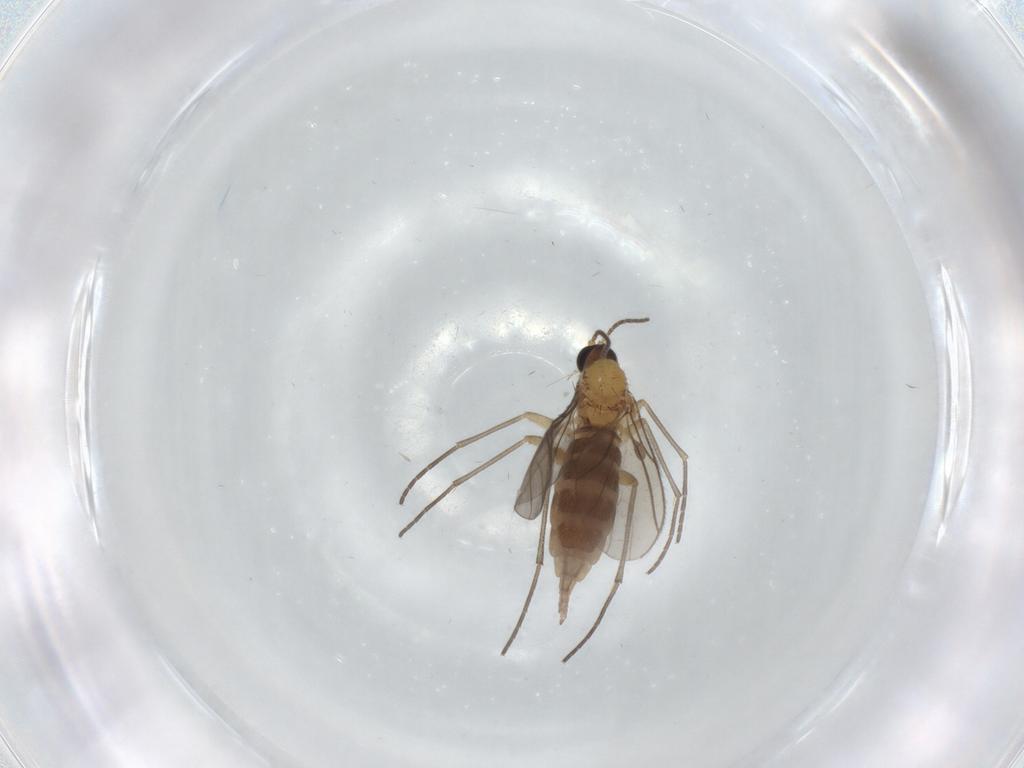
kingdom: Animalia
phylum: Arthropoda
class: Insecta
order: Diptera
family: Sciaridae
